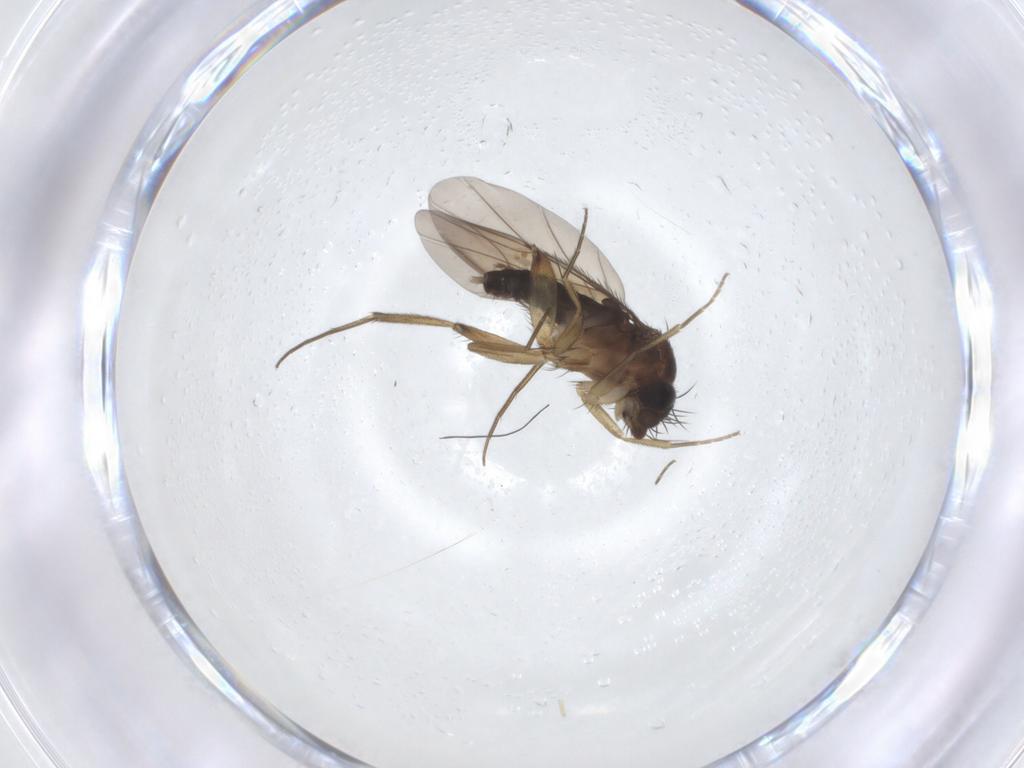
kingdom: Animalia
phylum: Arthropoda
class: Insecta
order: Diptera
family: Phoridae
